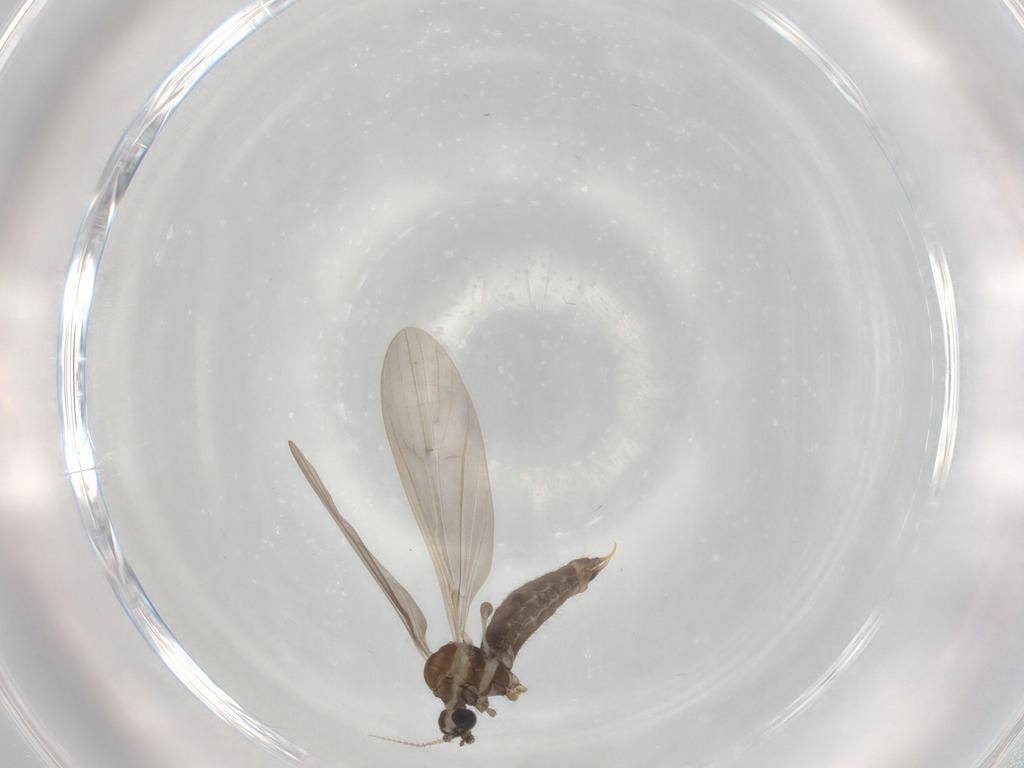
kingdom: Animalia
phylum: Arthropoda
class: Insecta
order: Diptera
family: Limoniidae
